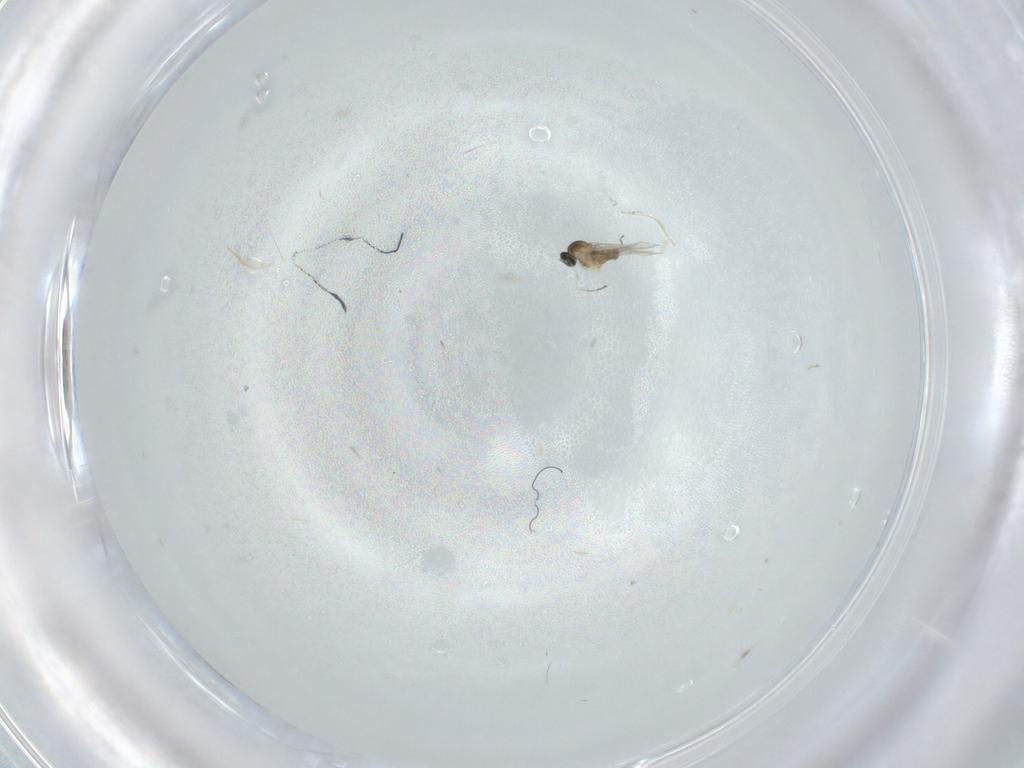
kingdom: Animalia
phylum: Arthropoda
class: Insecta
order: Diptera
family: Cecidomyiidae
